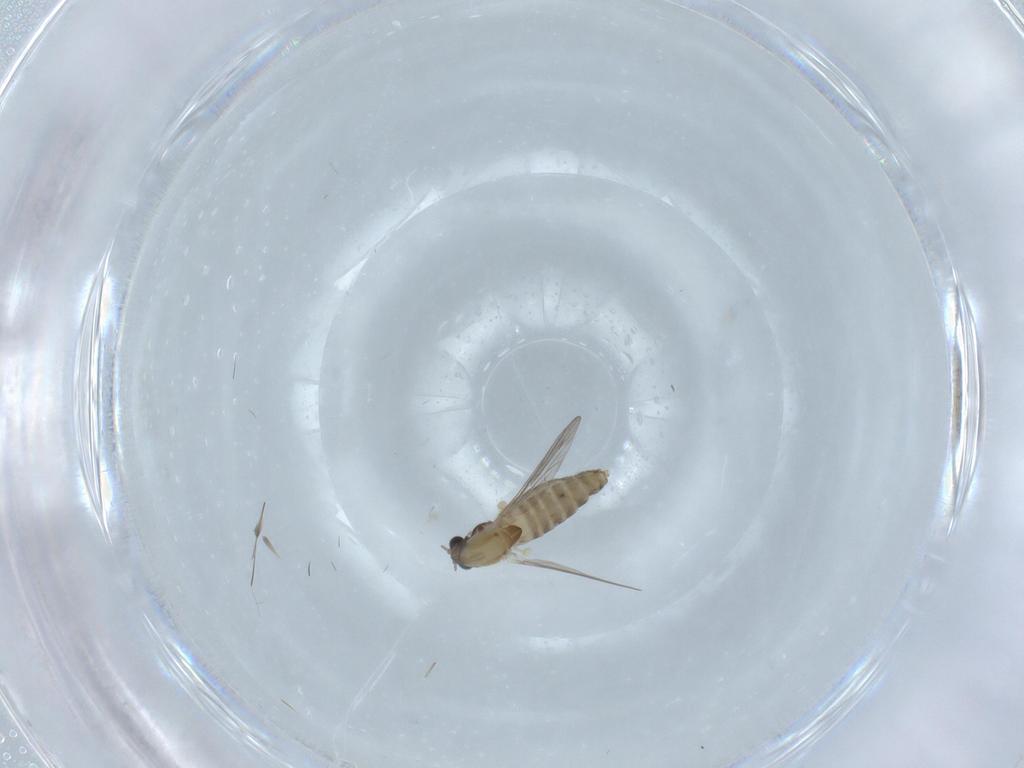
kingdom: Animalia
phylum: Arthropoda
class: Insecta
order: Diptera
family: Chironomidae
